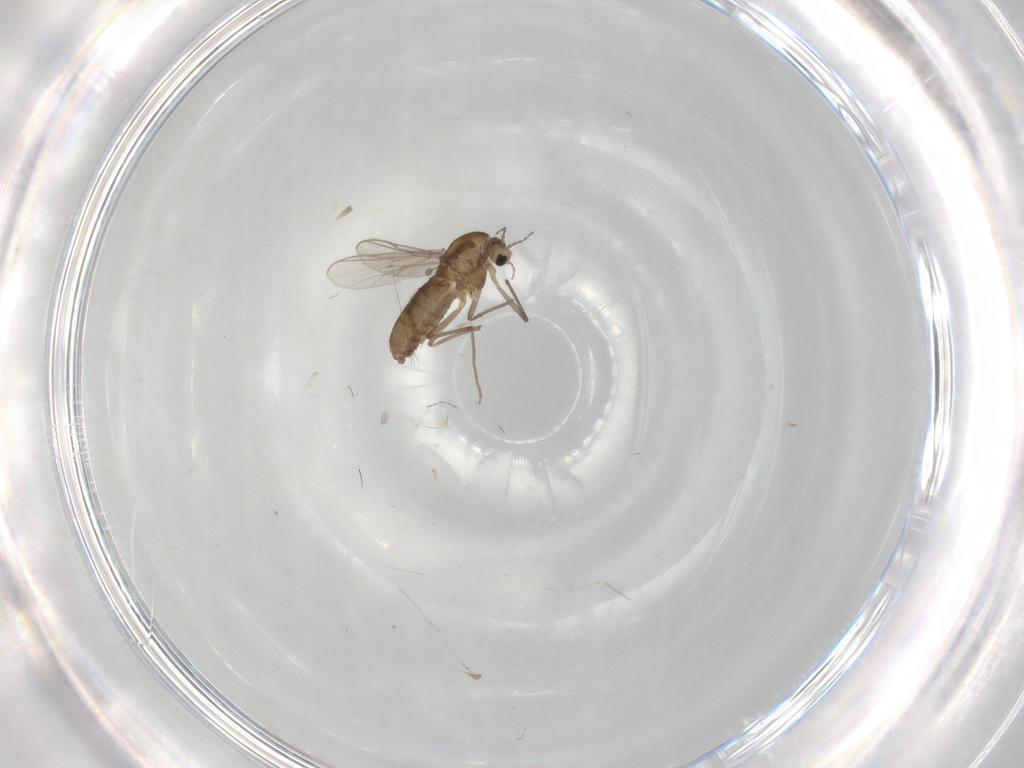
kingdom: Animalia
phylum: Arthropoda
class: Insecta
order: Diptera
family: Chironomidae
